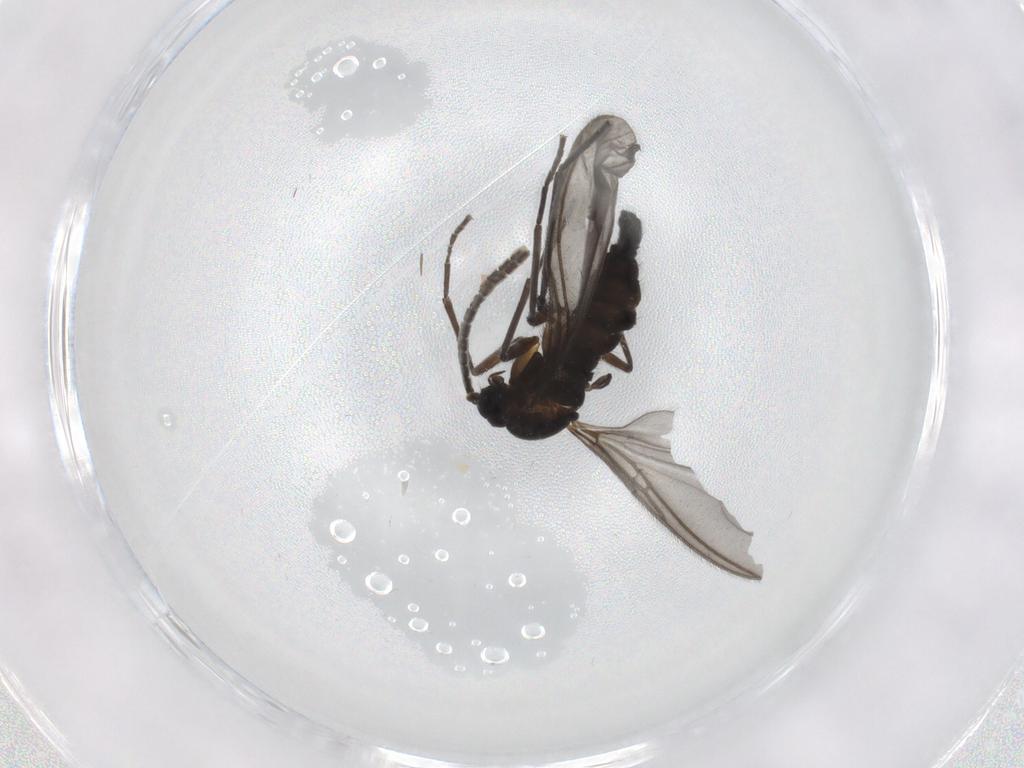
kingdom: Animalia
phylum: Arthropoda
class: Insecta
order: Diptera
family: Sciaridae
